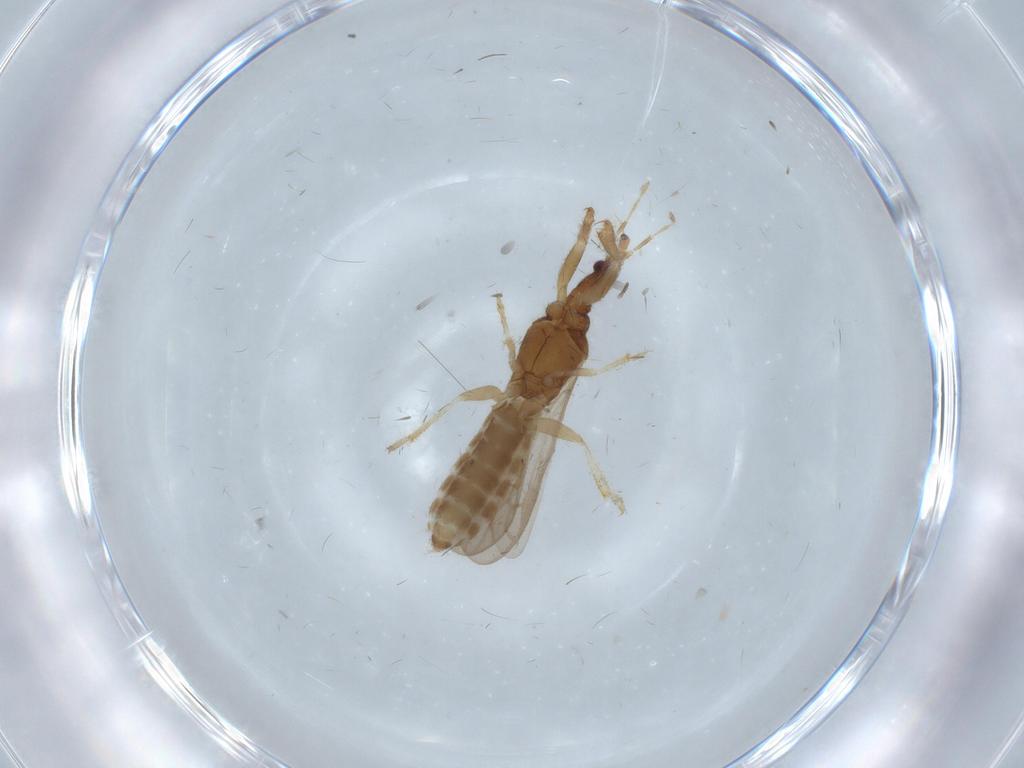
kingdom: Animalia
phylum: Arthropoda
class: Insecta
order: Hemiptera
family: Enicocephalidae
